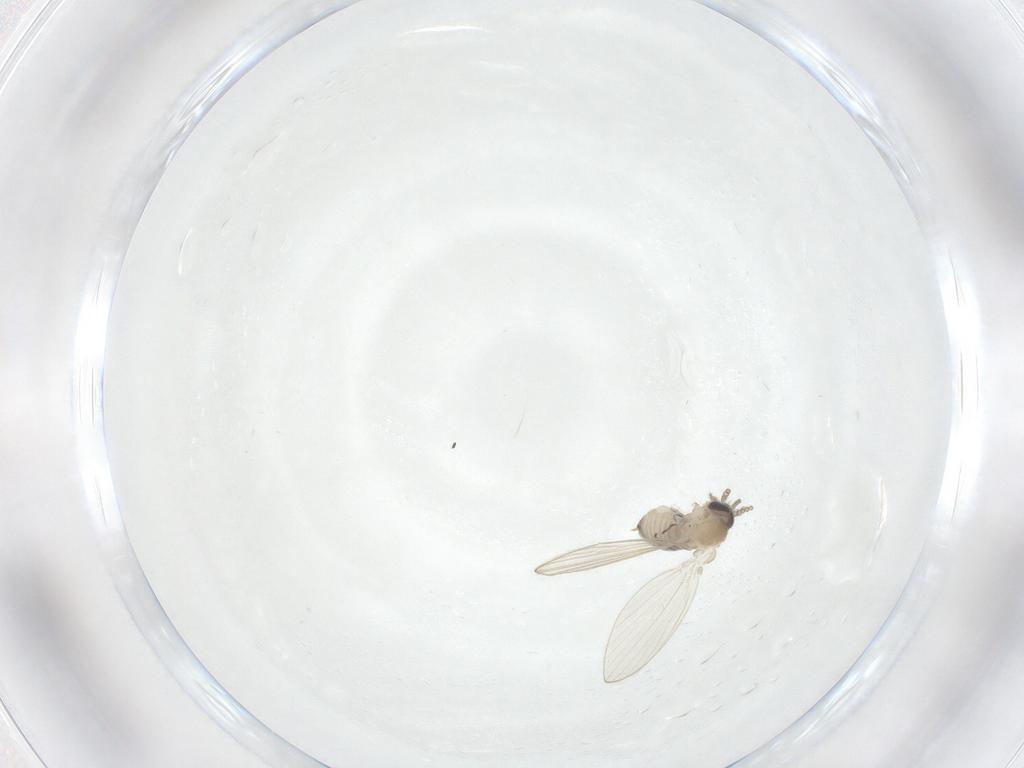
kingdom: Animalia
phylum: Arthropoda
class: Insecta
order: Diptera
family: Psychodidae
